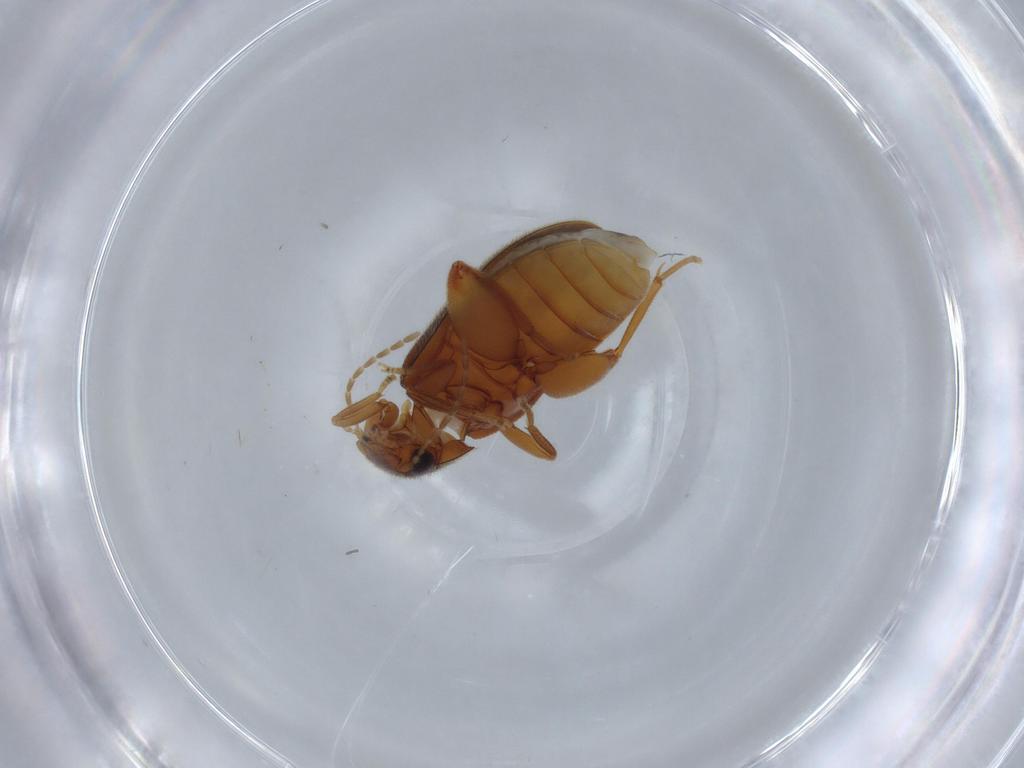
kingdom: Animalia
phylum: Arthropoda
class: Insecta
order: Coleoptera
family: Scirtidae
